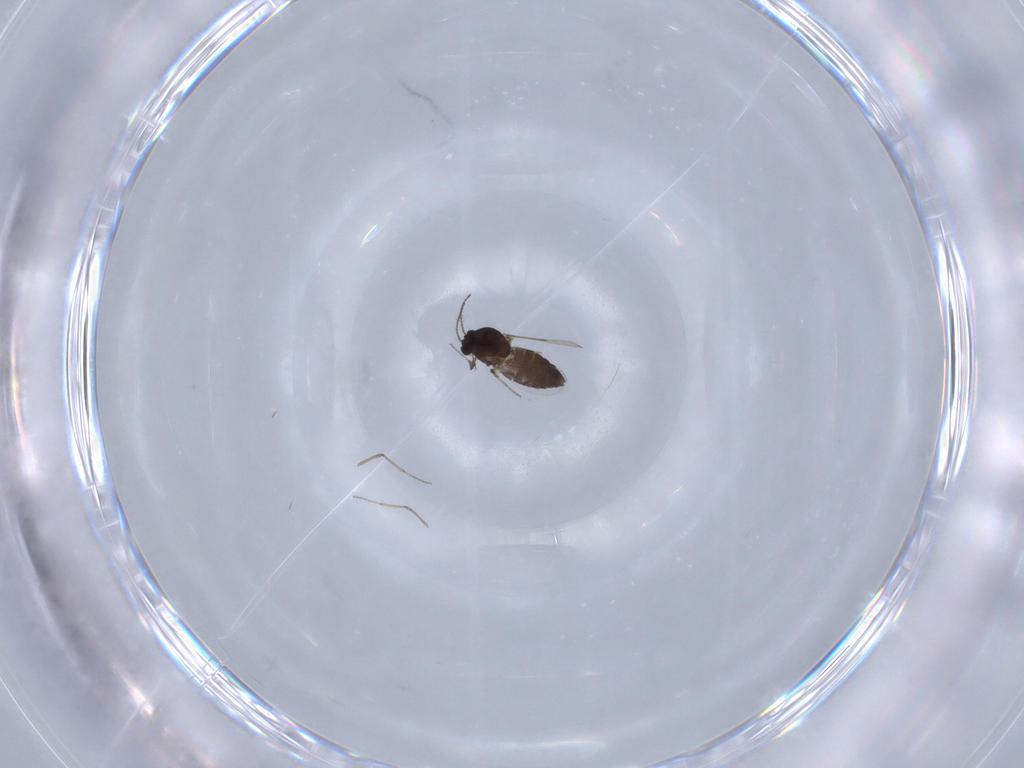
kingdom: Animalia
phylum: Arthropoda
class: Insecta
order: Diptera
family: Ceratopogonidae
